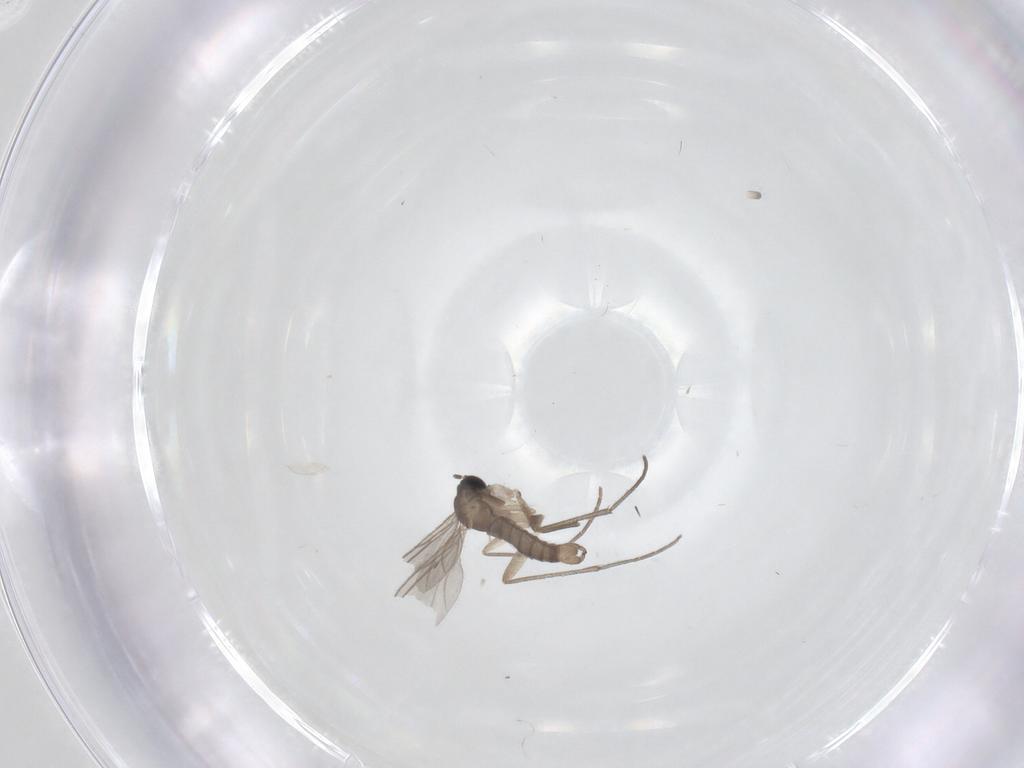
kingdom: Animalia
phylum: Arthropoda
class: Insecta
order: Diptera
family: Sciaridae
